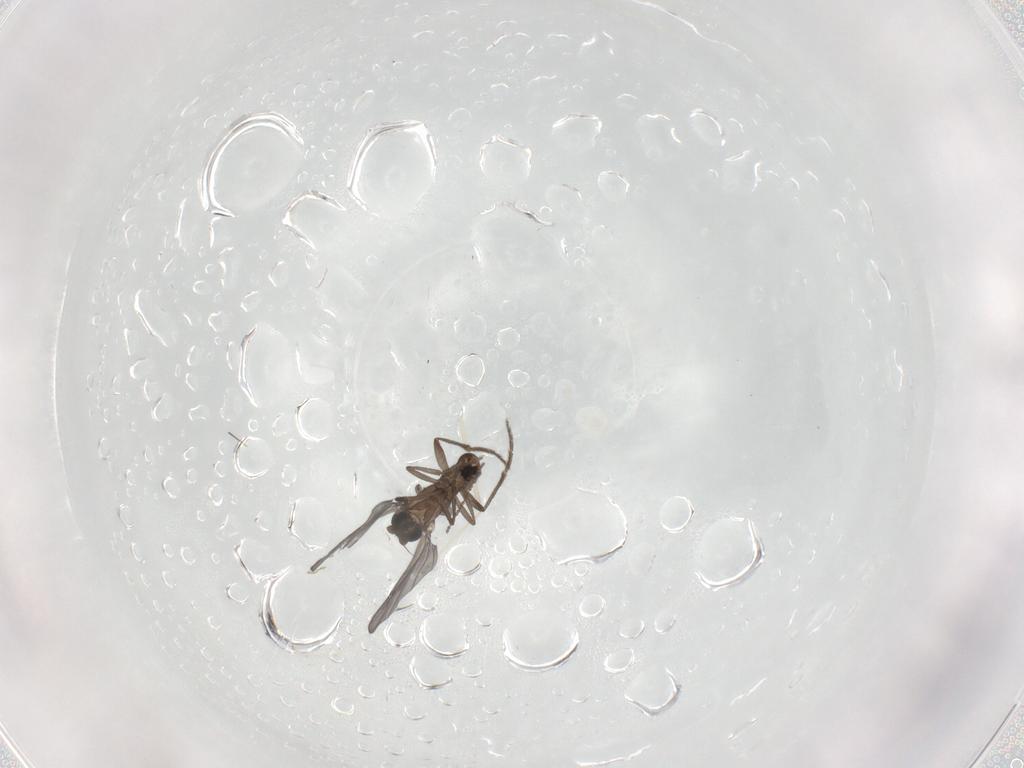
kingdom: Animalia
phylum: Arthropoda
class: Insecta
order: Diptera
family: Phoridae
